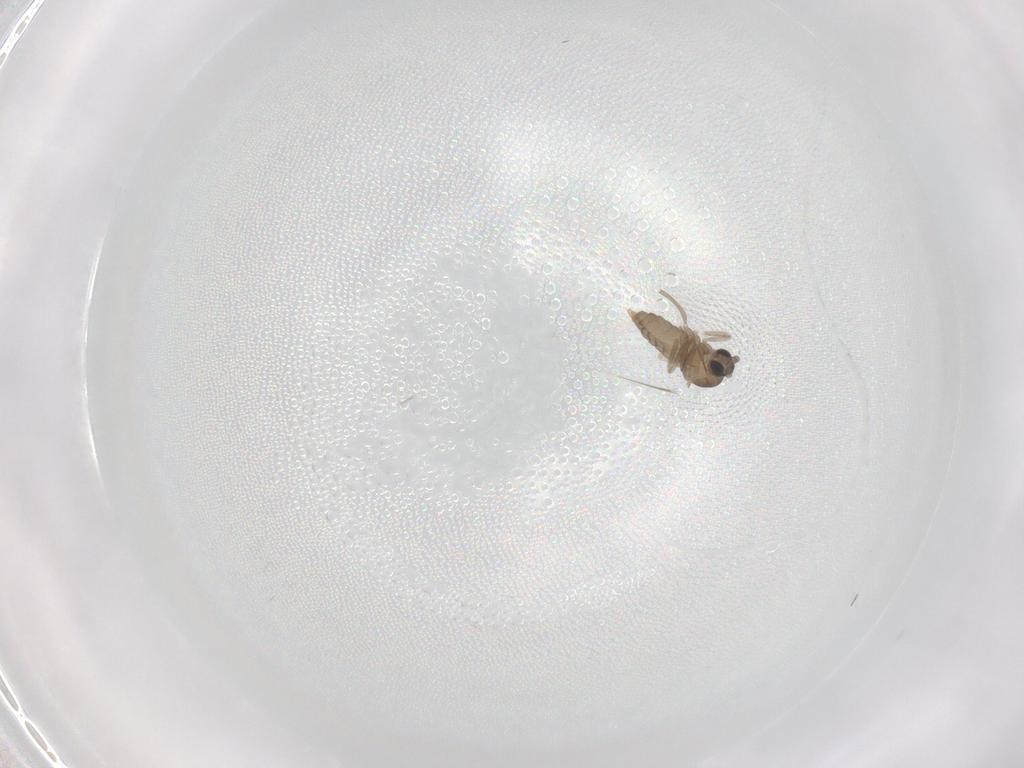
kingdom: Animalia
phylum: Arthropoda
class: Insecta
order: Diptera
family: Cecidomyiidae
